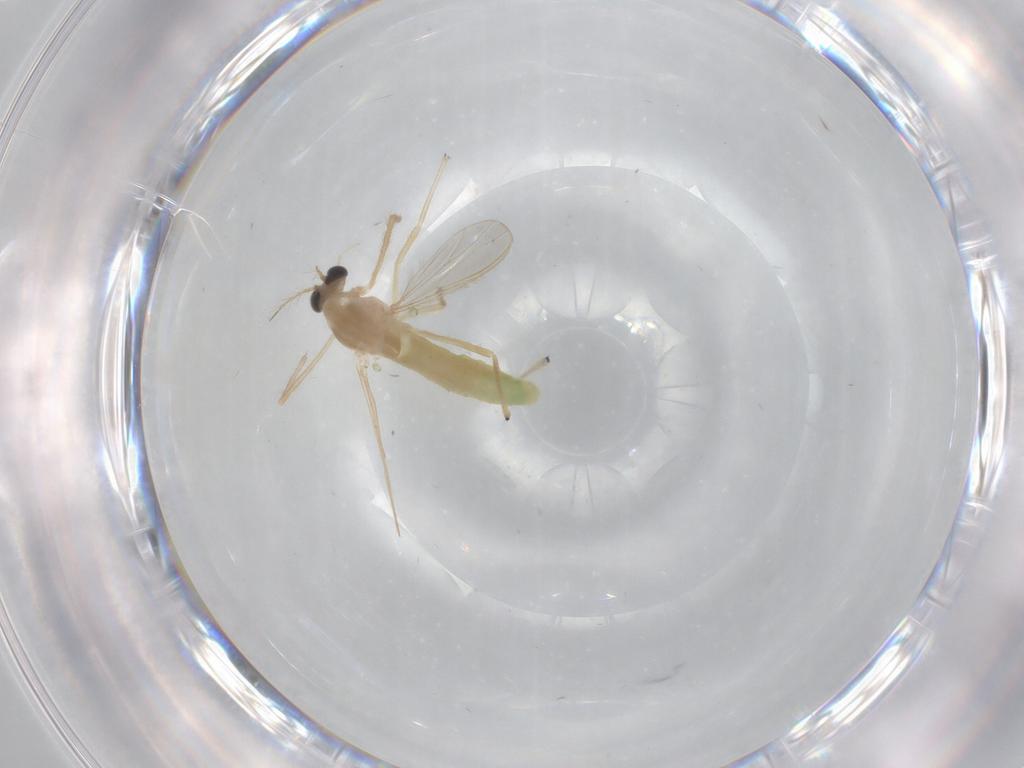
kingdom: Animalia
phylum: Arthropoda
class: Insecta
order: Diptera
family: Chironomidae
